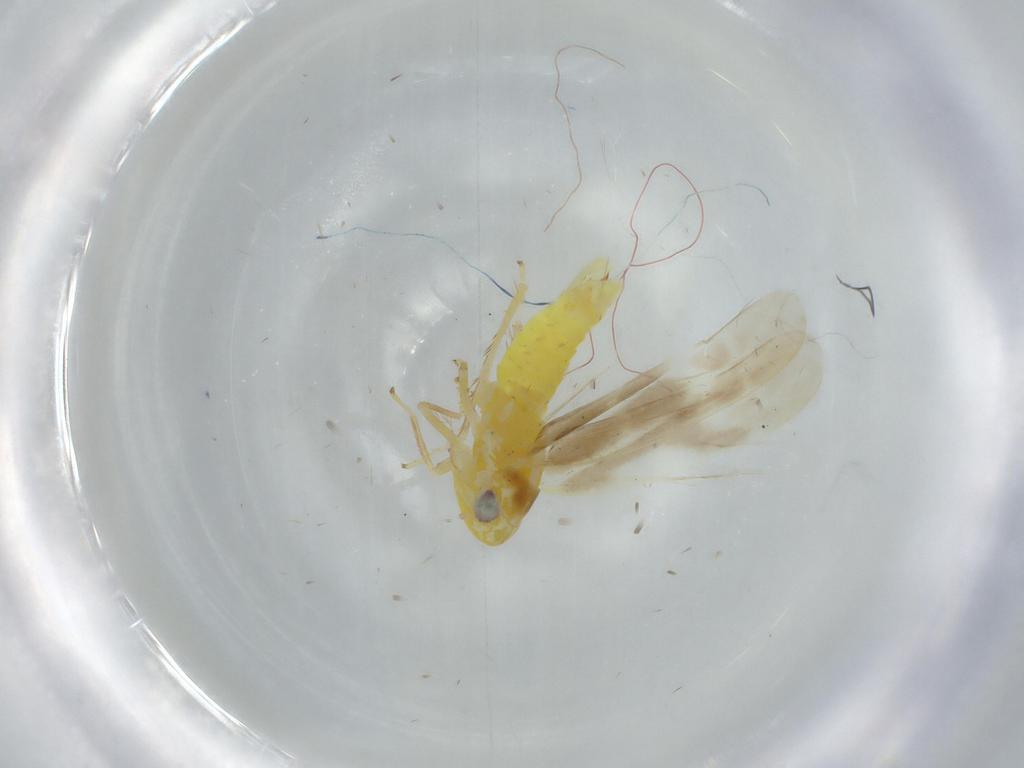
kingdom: Animalia
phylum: Arthropoda
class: Insecta
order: Hemiptera
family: Cicadellidae
